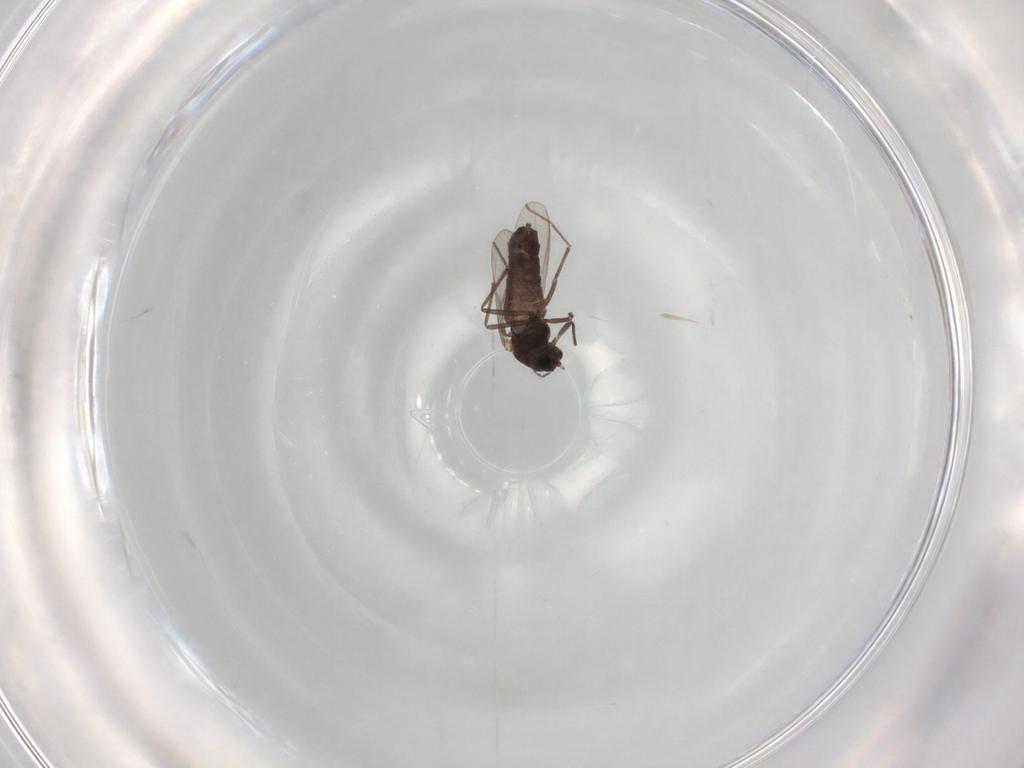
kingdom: Animalia
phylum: Arthropoda
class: Insecta
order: Diptera
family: Chironomidae
